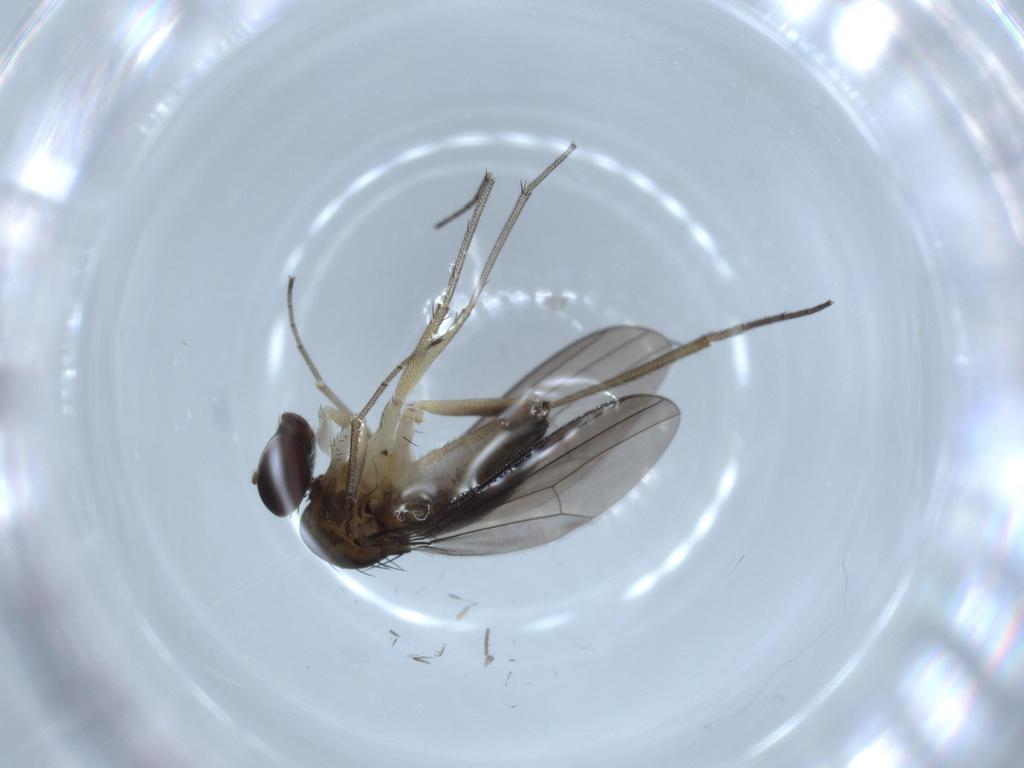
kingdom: Animalia
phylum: Arthropoda
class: Insecta
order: Diptera
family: Dolichopodidae
